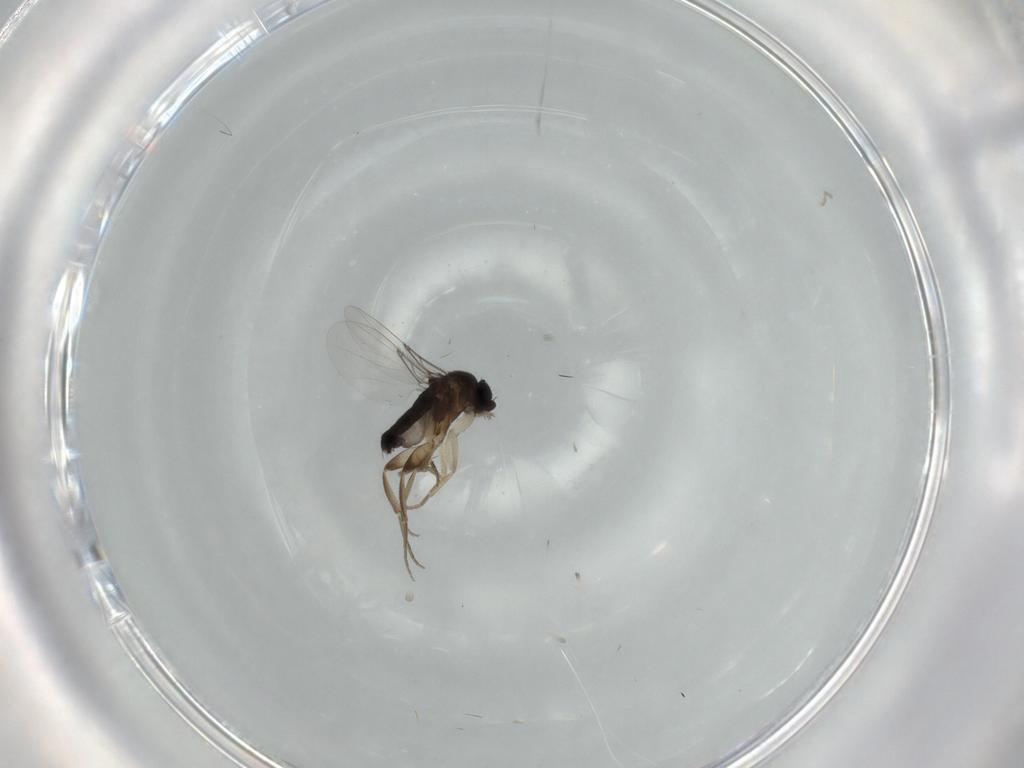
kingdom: Animalia
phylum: Arthropoda
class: Insecta
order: Diptera
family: Phoridae
